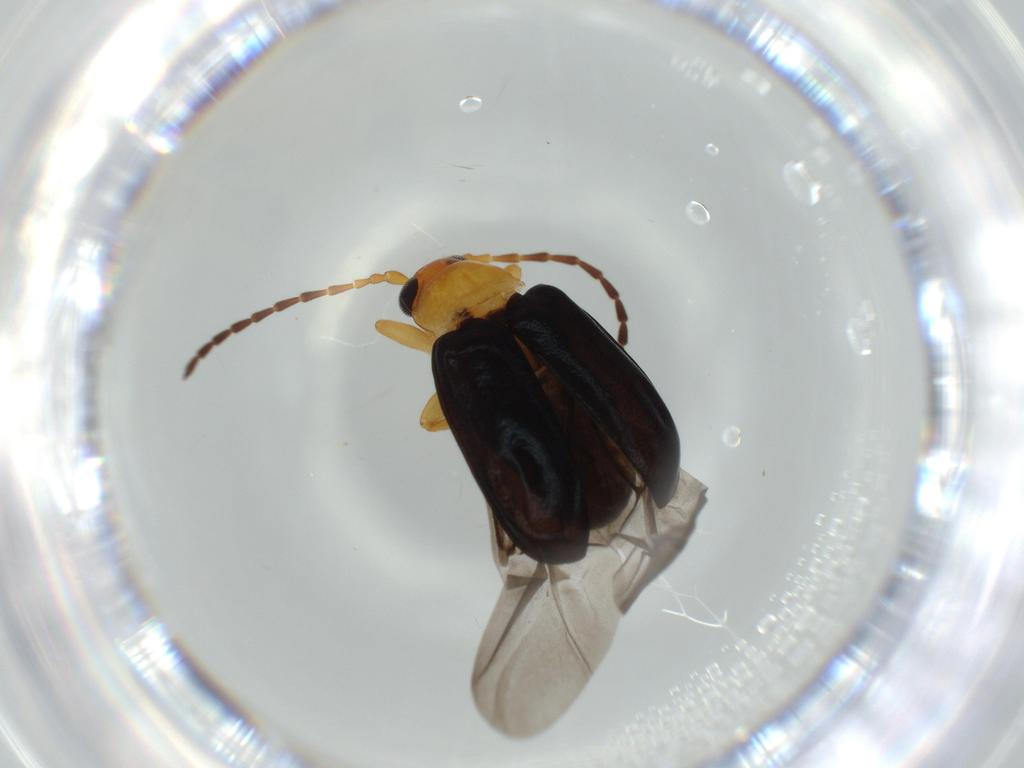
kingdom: Animalia
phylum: Arthropoda
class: Insecta
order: Coleoptera
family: Chrysomelidae
